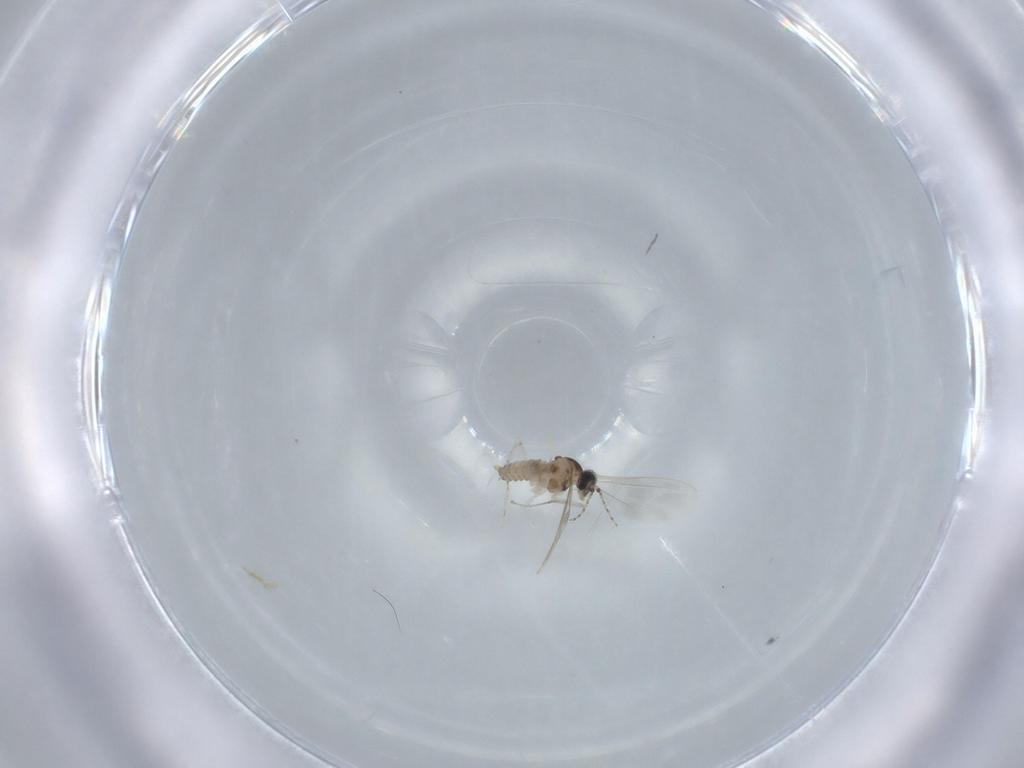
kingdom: Animalia
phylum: Arthropoda
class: Insecta
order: Diptera
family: Cecidomyiidae
